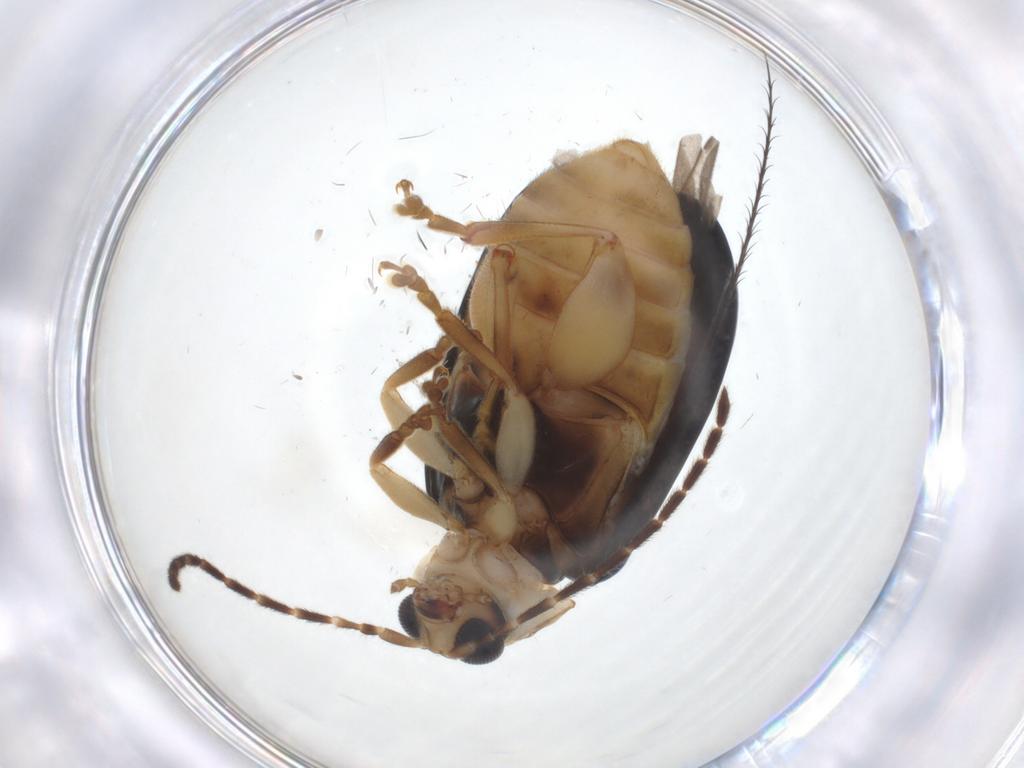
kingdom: Animalia
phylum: Arthropoda
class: Insecta
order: Coleoptera
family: Chrysomelidae
